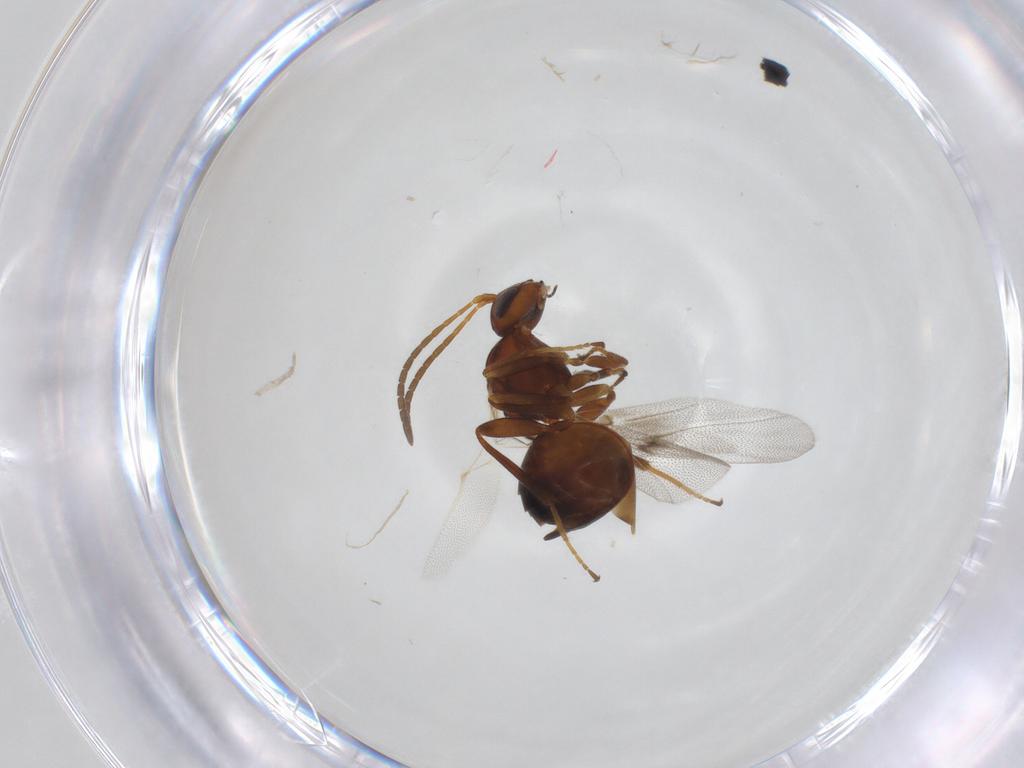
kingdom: Animalia
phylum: Arthropoda
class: Insecta
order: Hymenoptera
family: Cynipidae
